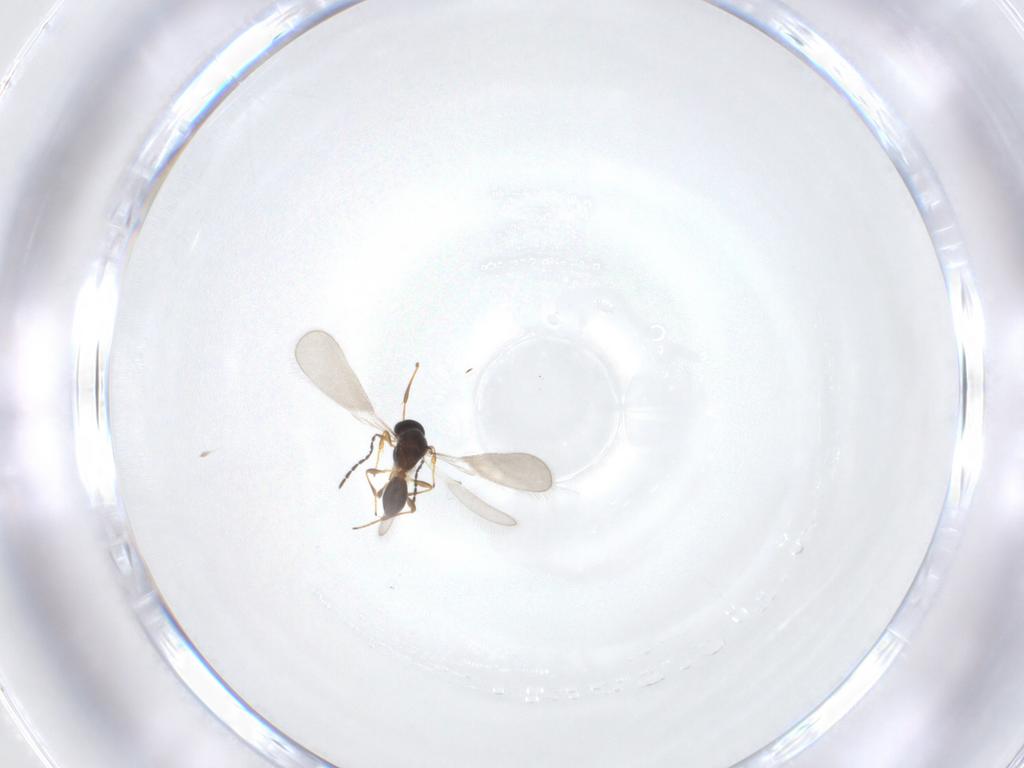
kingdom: Animalia
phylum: Arthropoda
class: Insecta
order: Hymenoptera
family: Platygastridae
